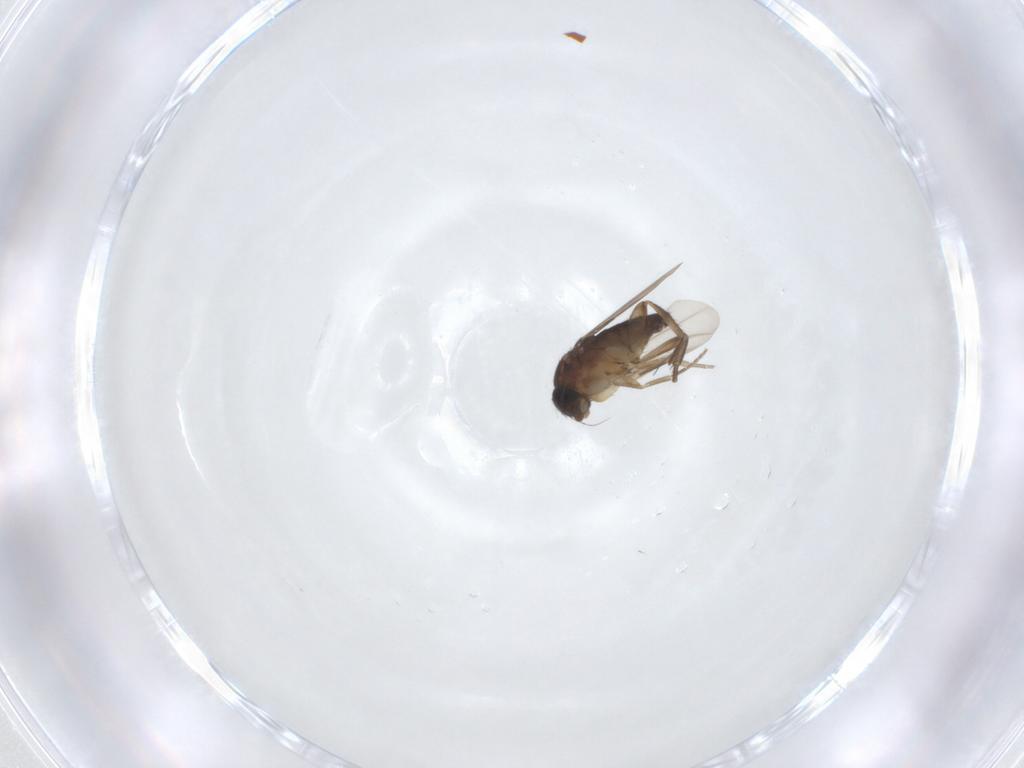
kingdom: Animalia
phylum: Arthropoda
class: Insecta
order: Diptera
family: Phoridae
